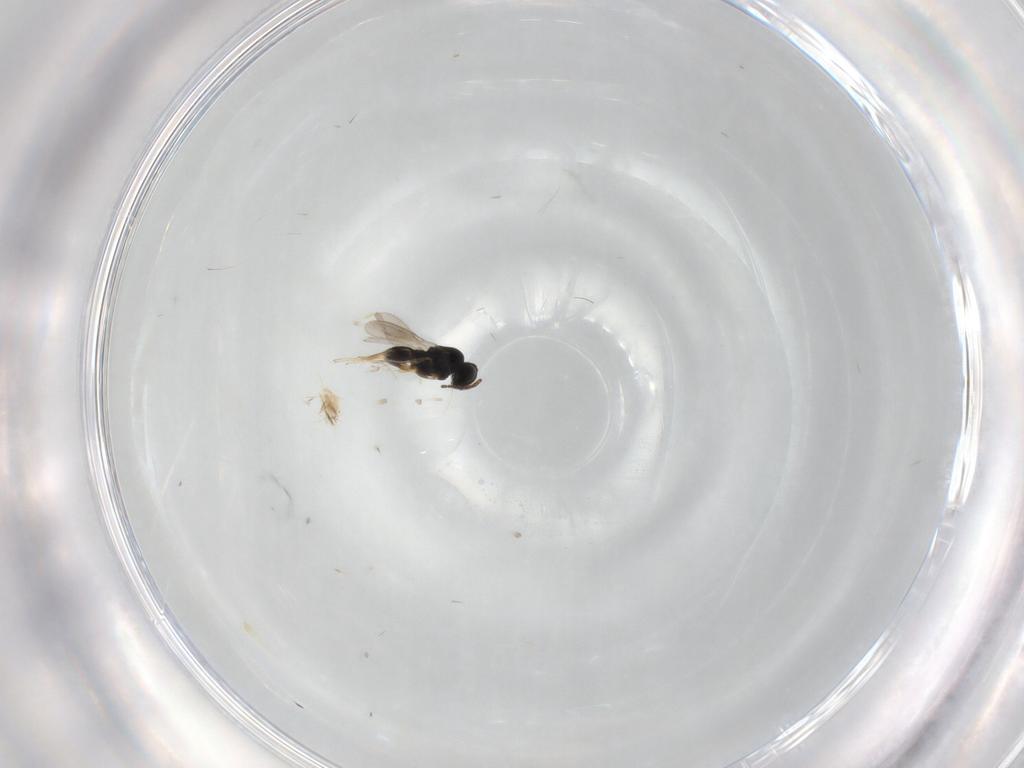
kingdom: Animalia
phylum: Arthropoda
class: Insecta
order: Hymenoptera
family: Scelionidae
